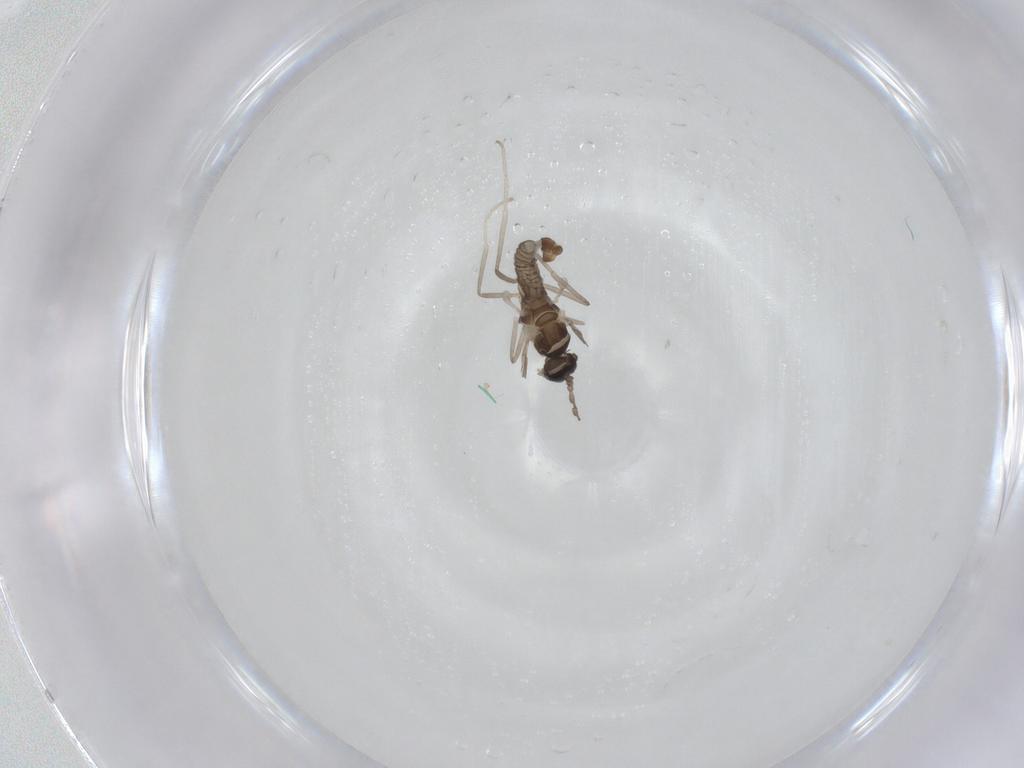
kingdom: Animalia
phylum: Arthropoda
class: Insecta
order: Diptera
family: Cecidomyiidae
